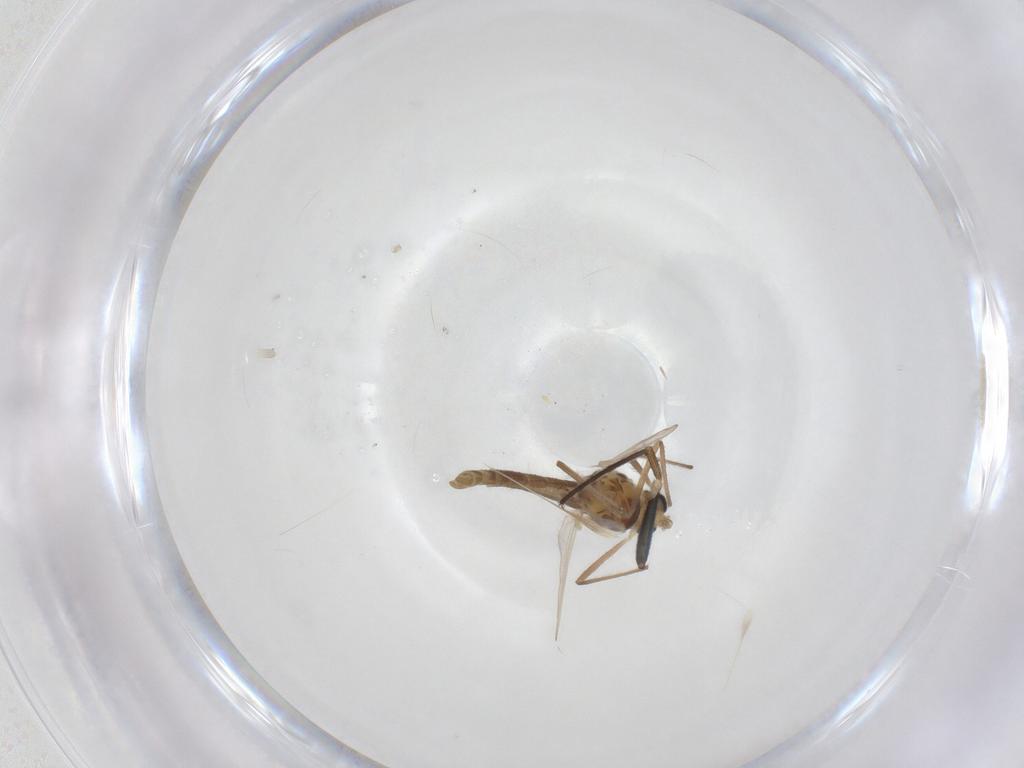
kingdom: Animalia
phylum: Arthropoda
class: Insecta
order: Diptera
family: Chironomidae
